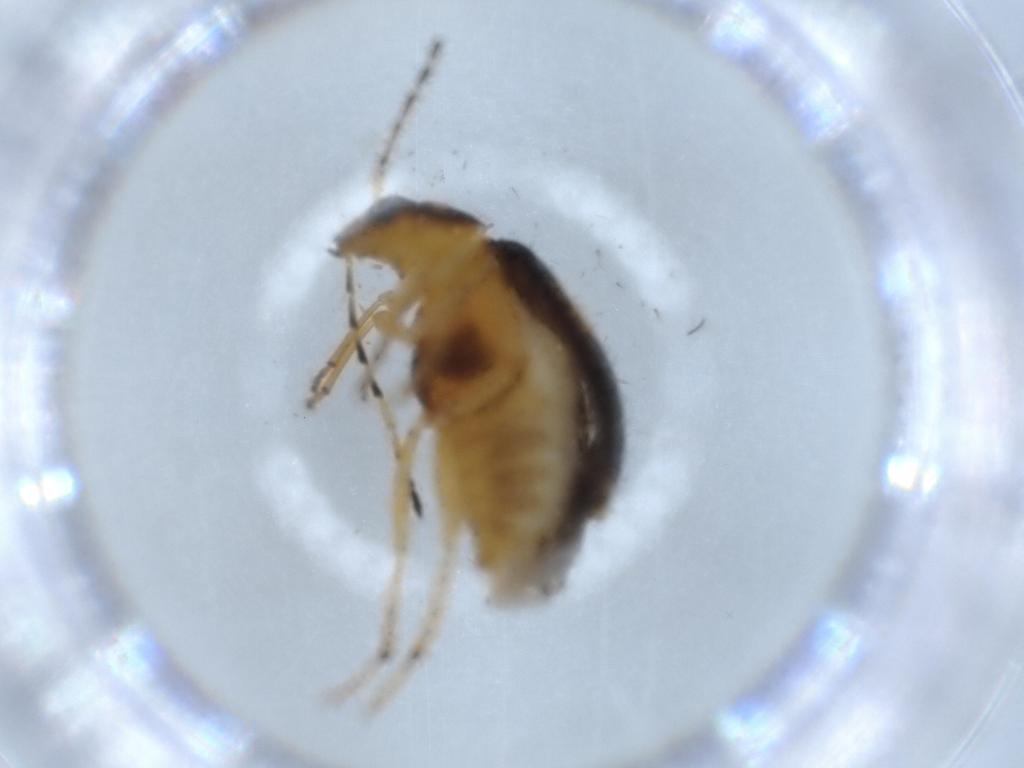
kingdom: Animalia
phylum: Arthropoda
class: Insecta
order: Coleoptera
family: Chrysomelidae
